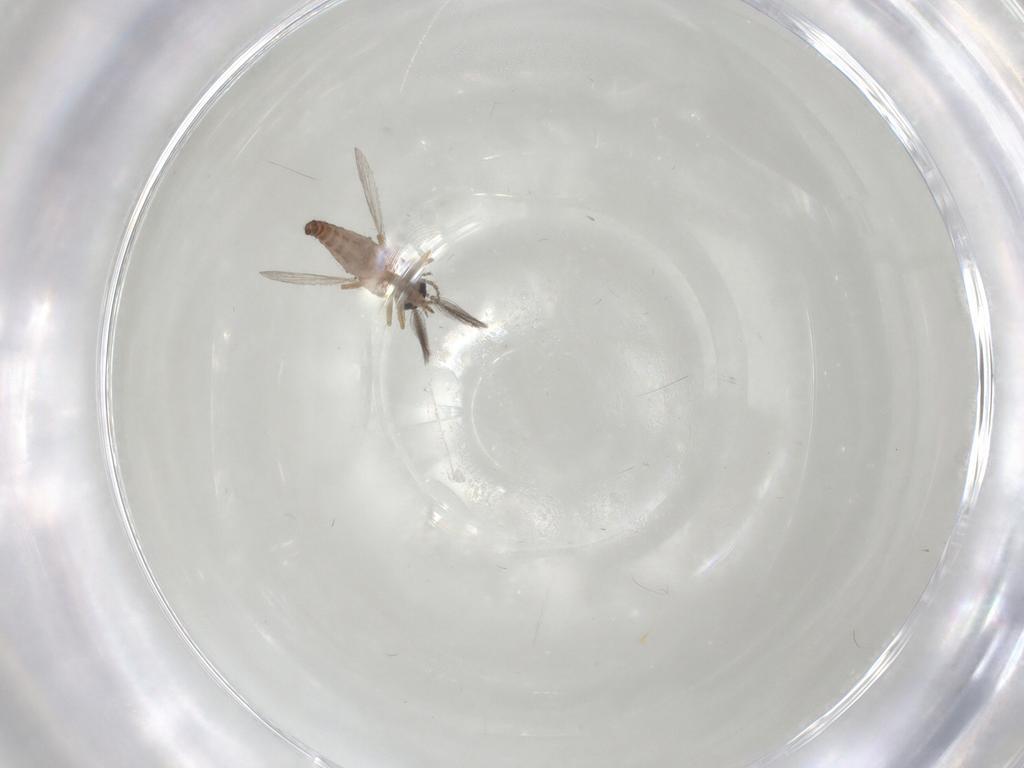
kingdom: Animalia
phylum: Arthropoda
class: Insecta
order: Diptera
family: Ceratopogonidae
